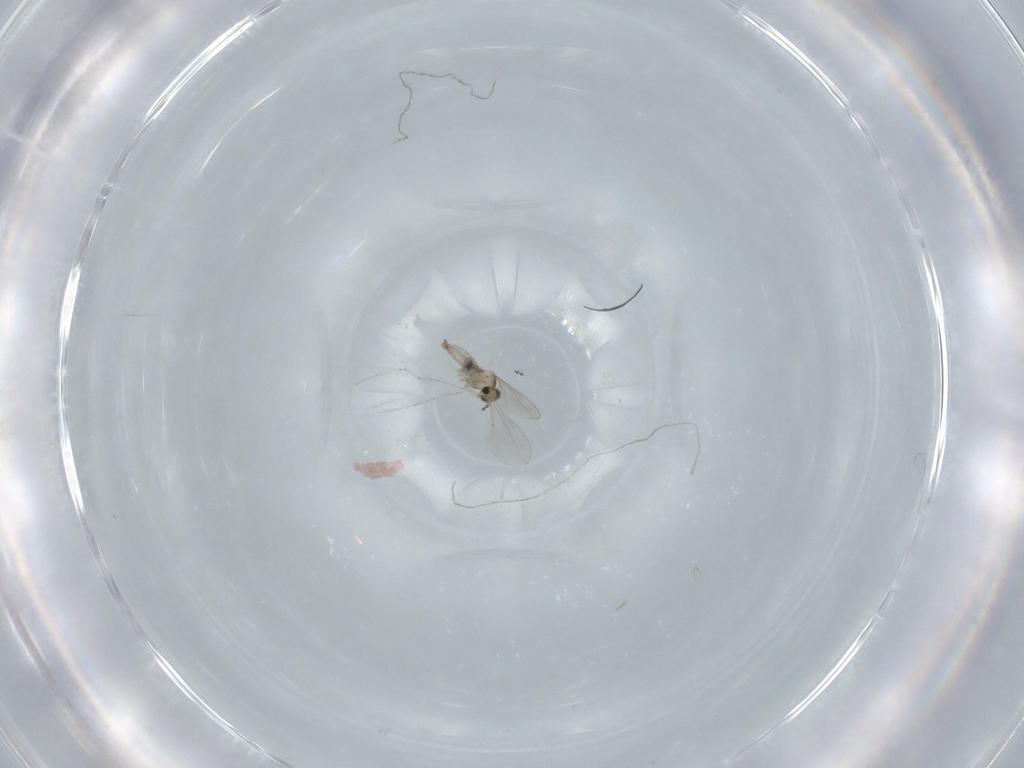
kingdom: Animalia
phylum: Arthropoda
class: Insecta
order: Diptera
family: Cecidomyiidae
